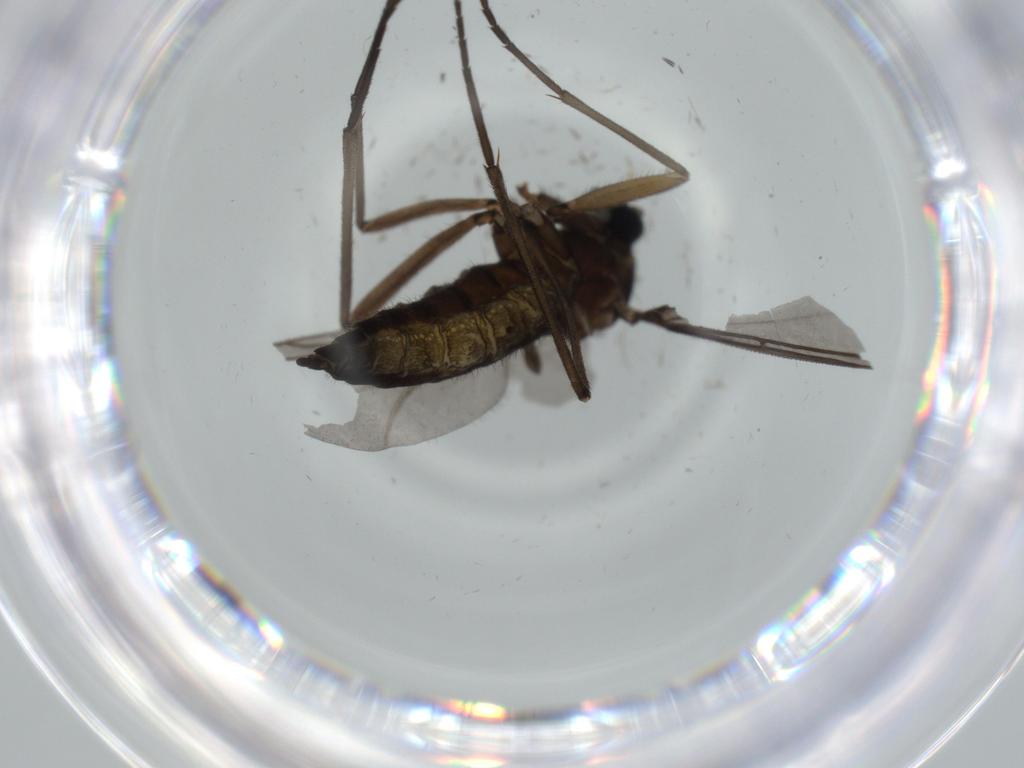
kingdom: Animalia
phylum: Arthropoda
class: Insecta
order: Diptera
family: Sciaridae
